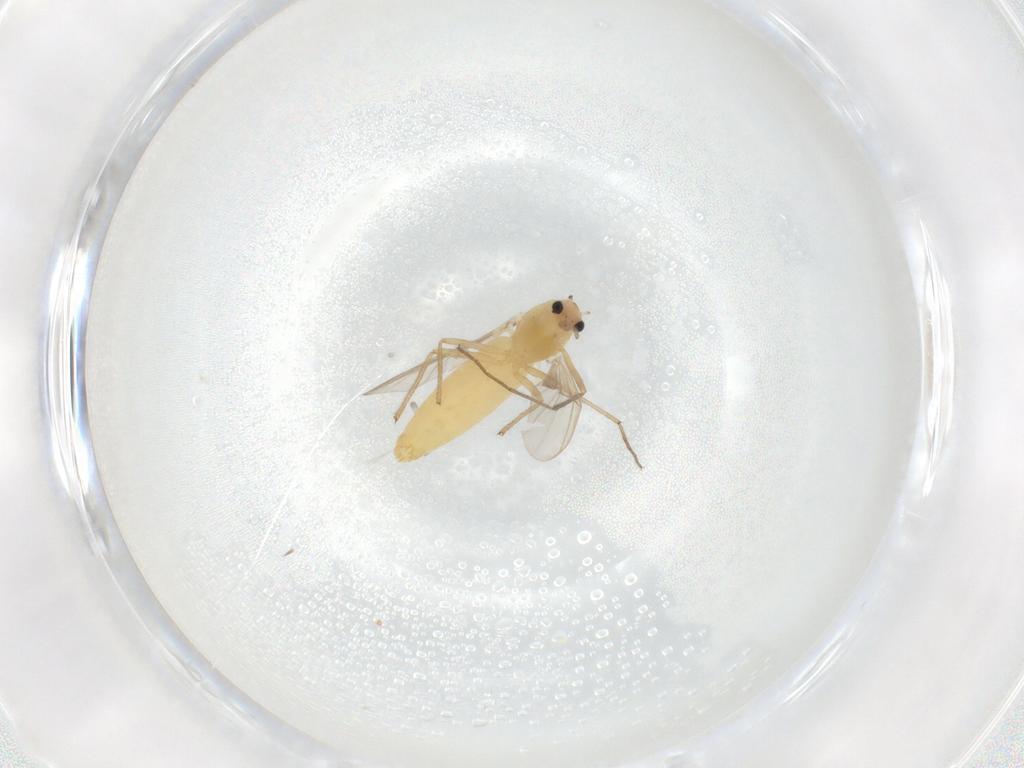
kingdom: Animalia
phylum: Arthropoda
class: Insecta
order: Diptera
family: Chironomidae
